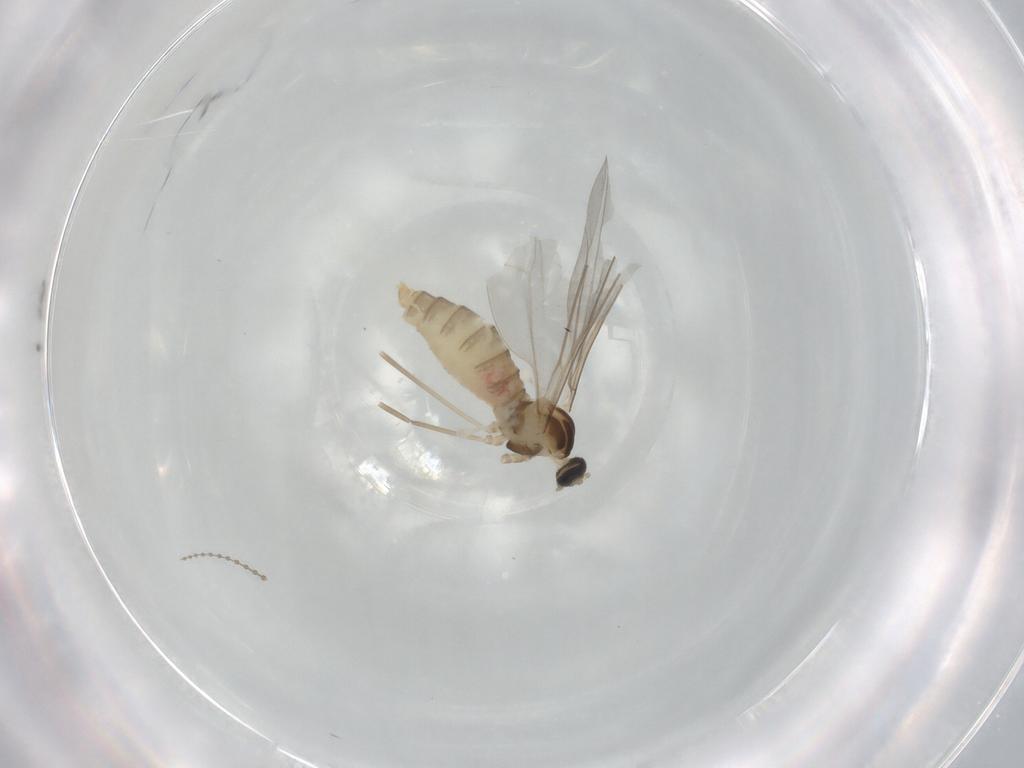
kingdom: Animalia
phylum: Arthropoda
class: Insecta
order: Diptera
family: Cecidomyiidae
